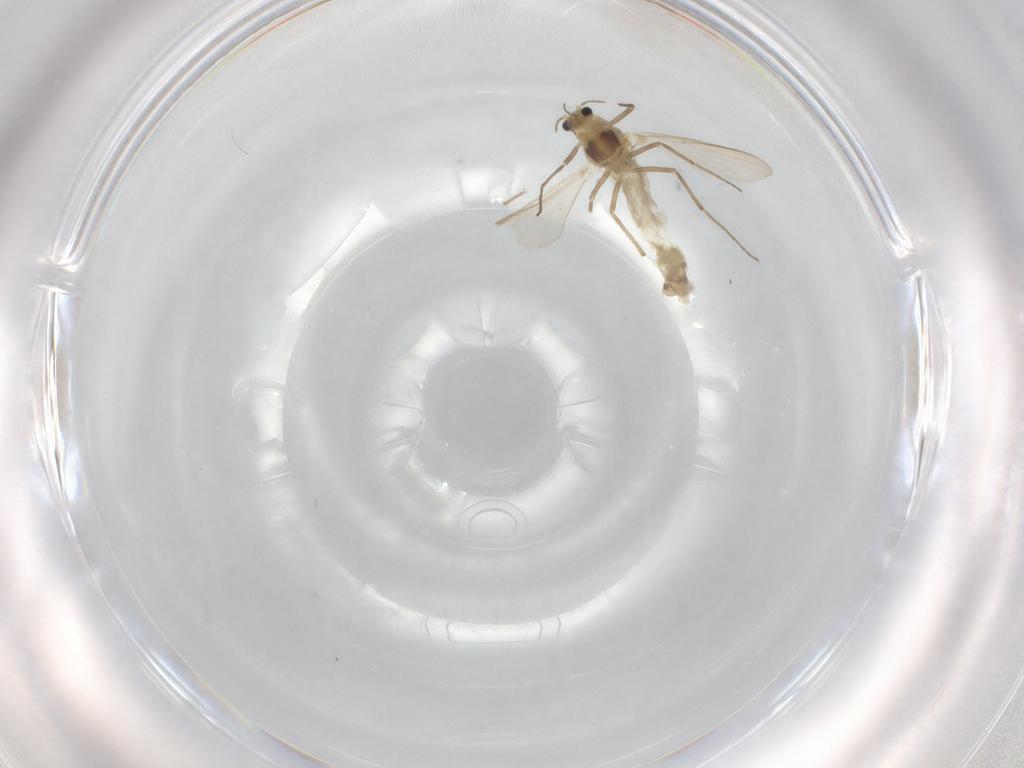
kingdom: Animalia
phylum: Arthropoda
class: Insecta
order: Diptera
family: Chironomidae
